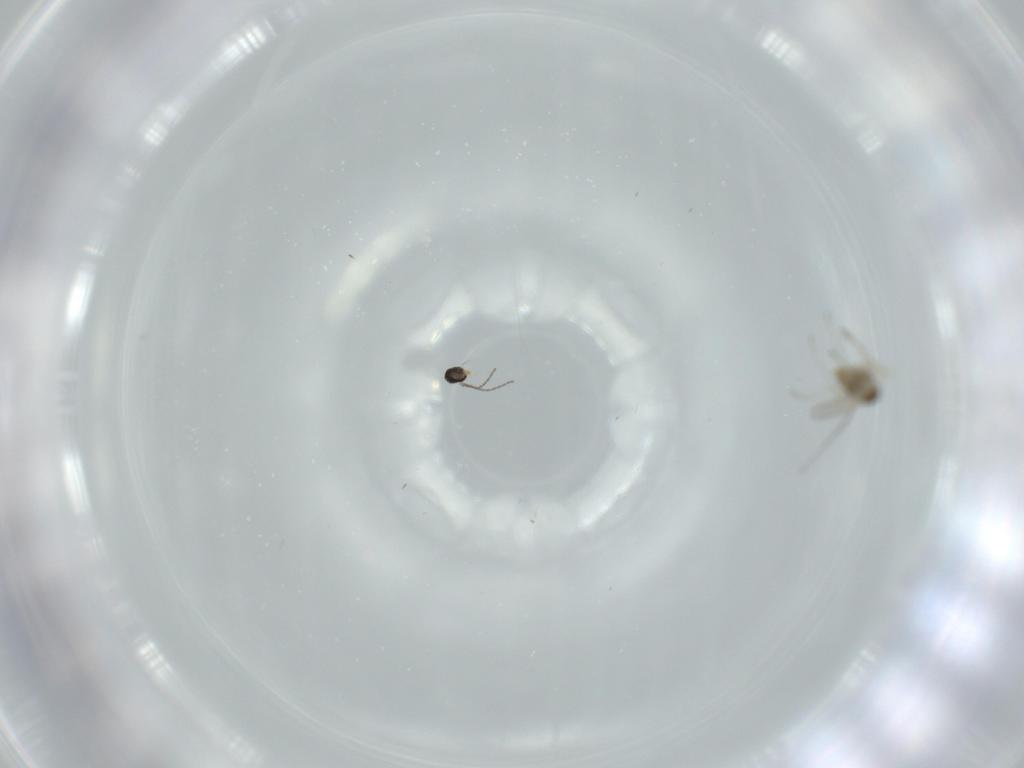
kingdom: Animalia
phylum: Arthropoda
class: Insecta
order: Diptera
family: Cecidomyiidae
